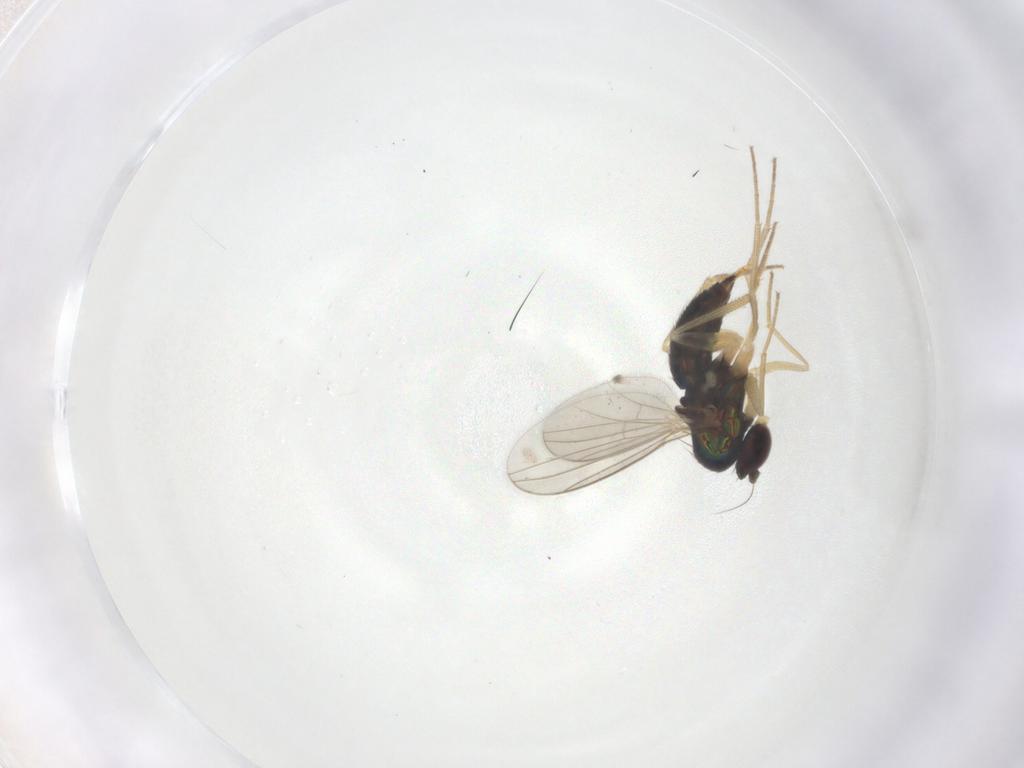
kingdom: Animalia
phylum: Arthropoda
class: Insecta
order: Diptera
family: Dolichopodidae
